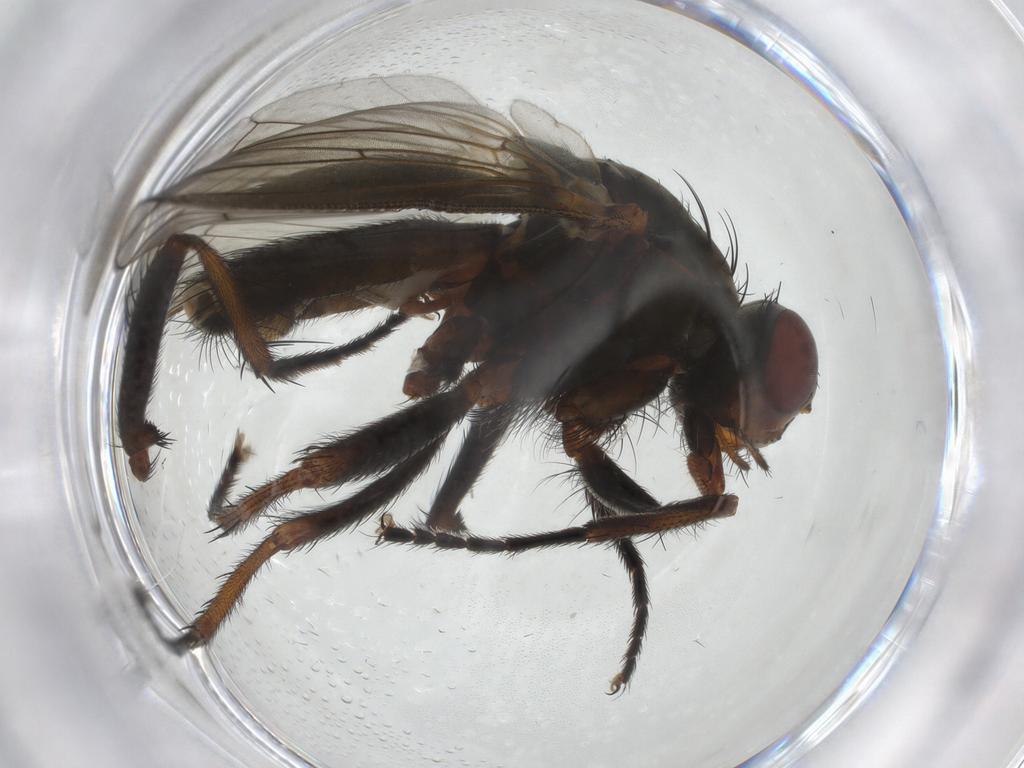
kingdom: Animalia
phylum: Arthropoda
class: Insecta
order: Diptera
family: Anthomyiidae
